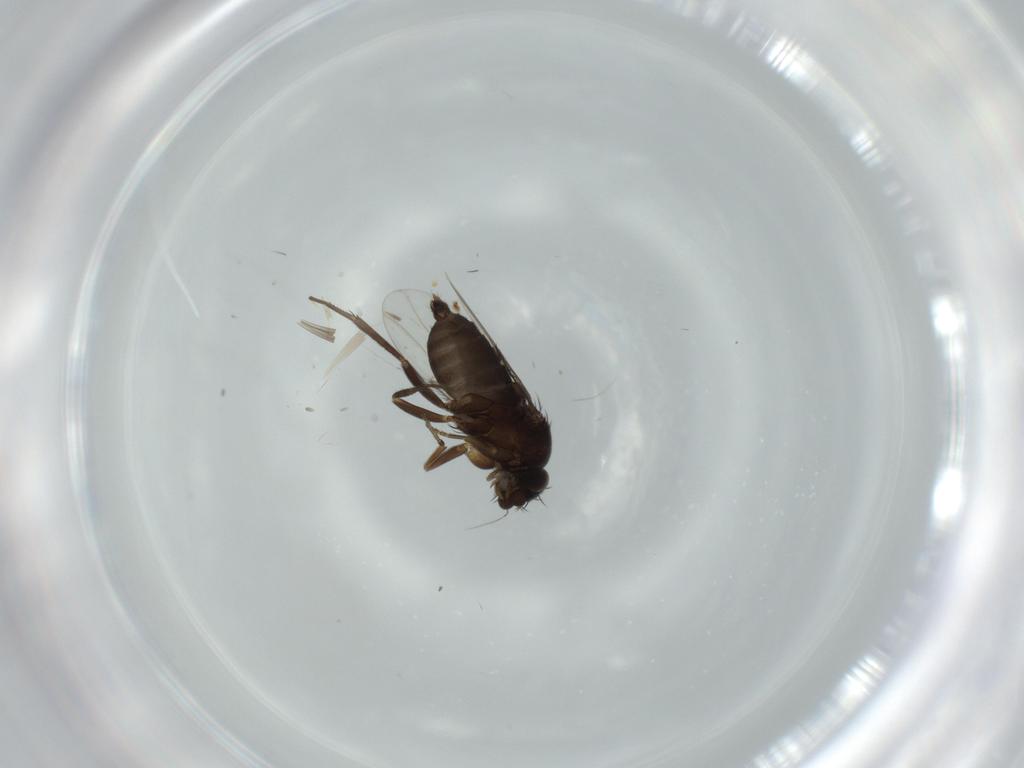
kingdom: Animalia
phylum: Arthropoda
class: Insecta
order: Diptera
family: Phoridae
